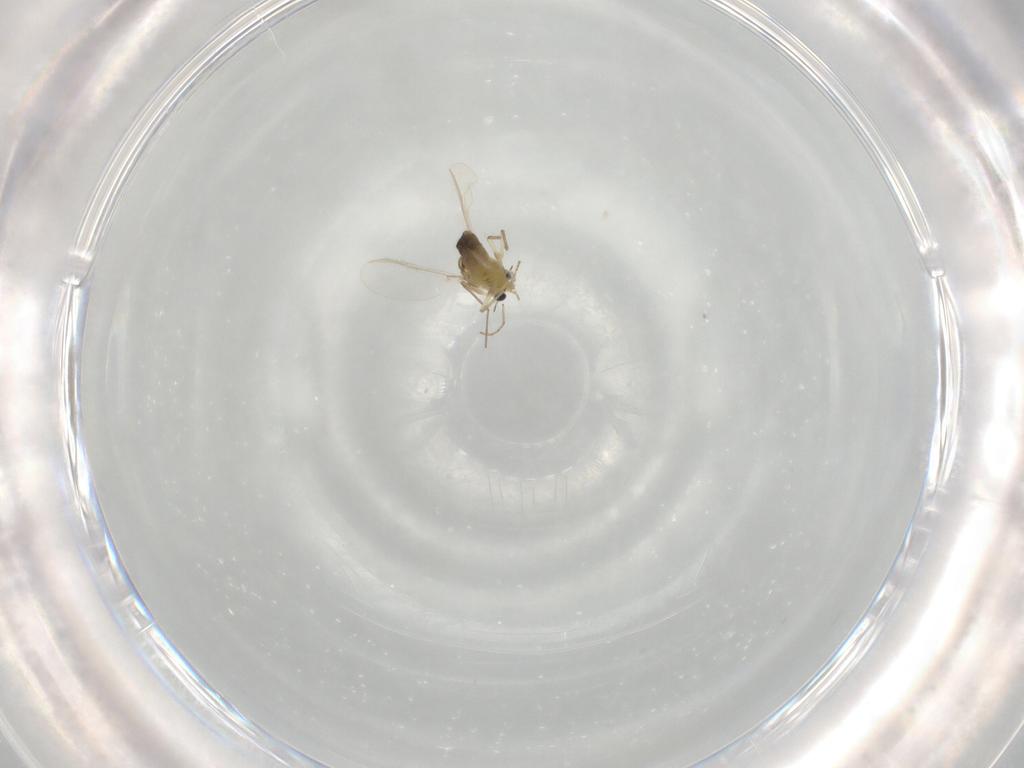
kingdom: Animalia
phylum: Arthropoda
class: Insecta
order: Diptera
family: Chironomidae
